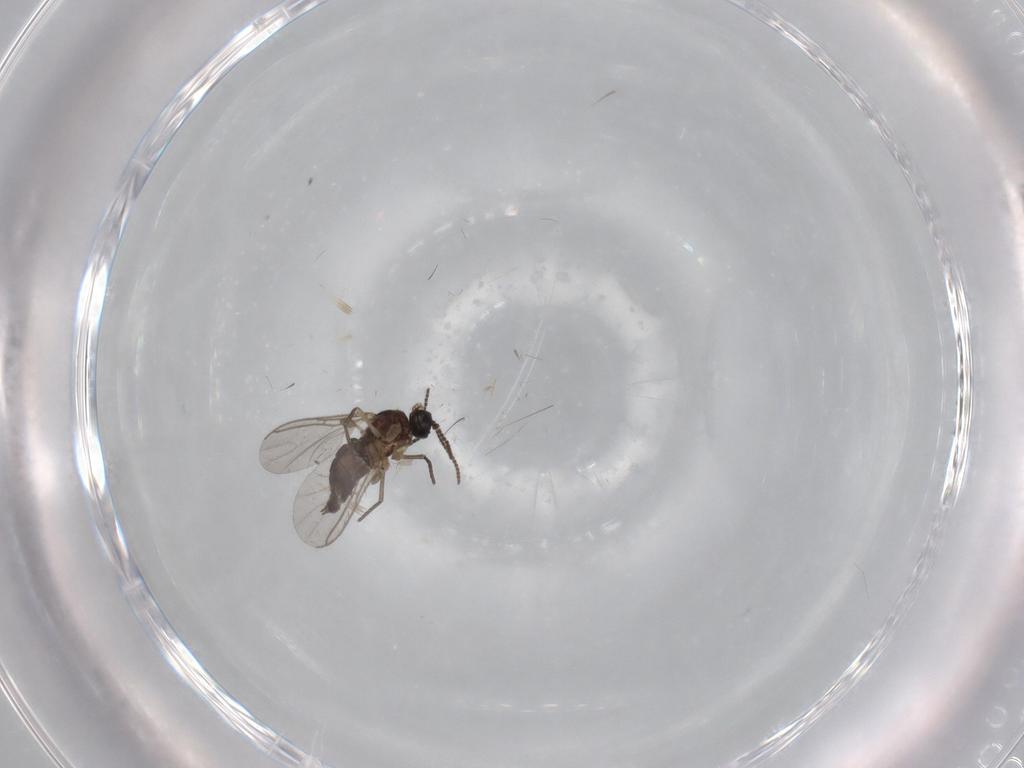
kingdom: Animalia
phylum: Arthropoda
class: Insecta
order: Diptera
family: Sciaridae
